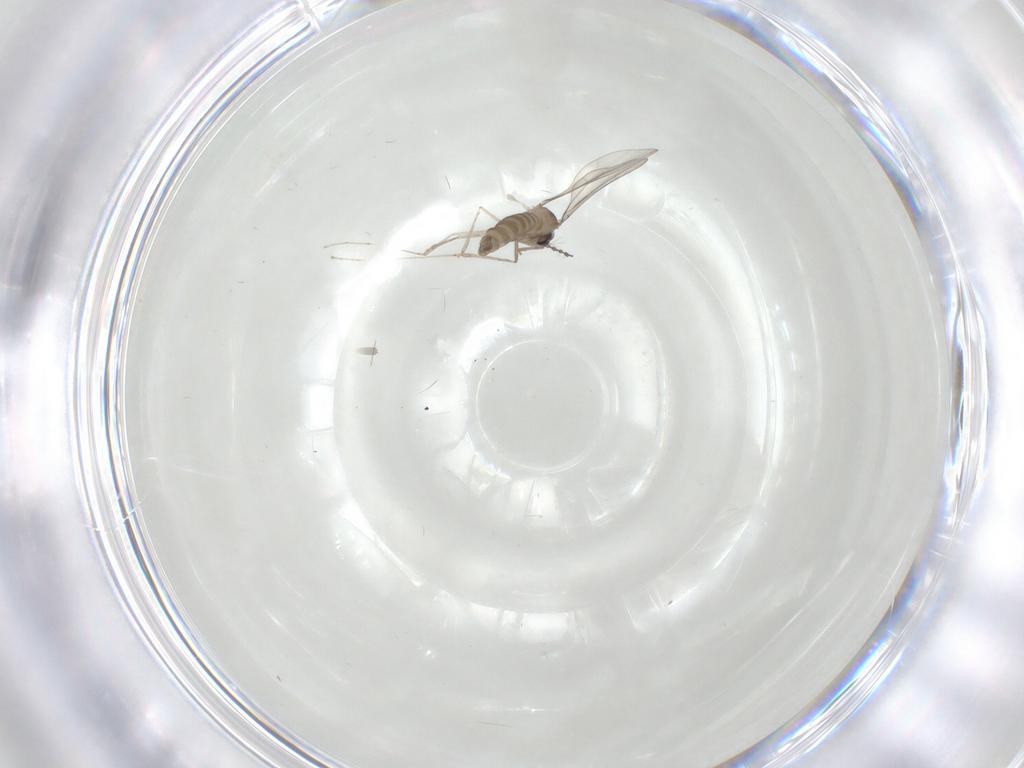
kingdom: Animalia
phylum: Arthropoda
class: Insecta
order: Diptera
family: Cecidomyiidae
